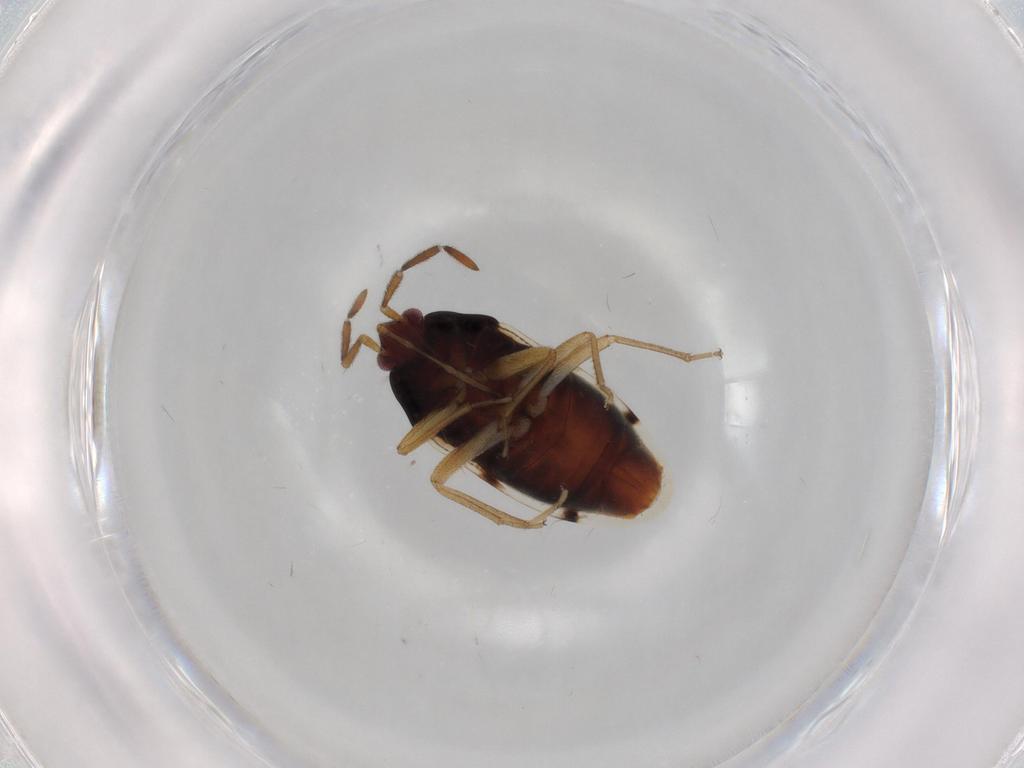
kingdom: Animalia
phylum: Arthropoda
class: Insecta
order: Hemiptera
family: Rhyparochromidae
